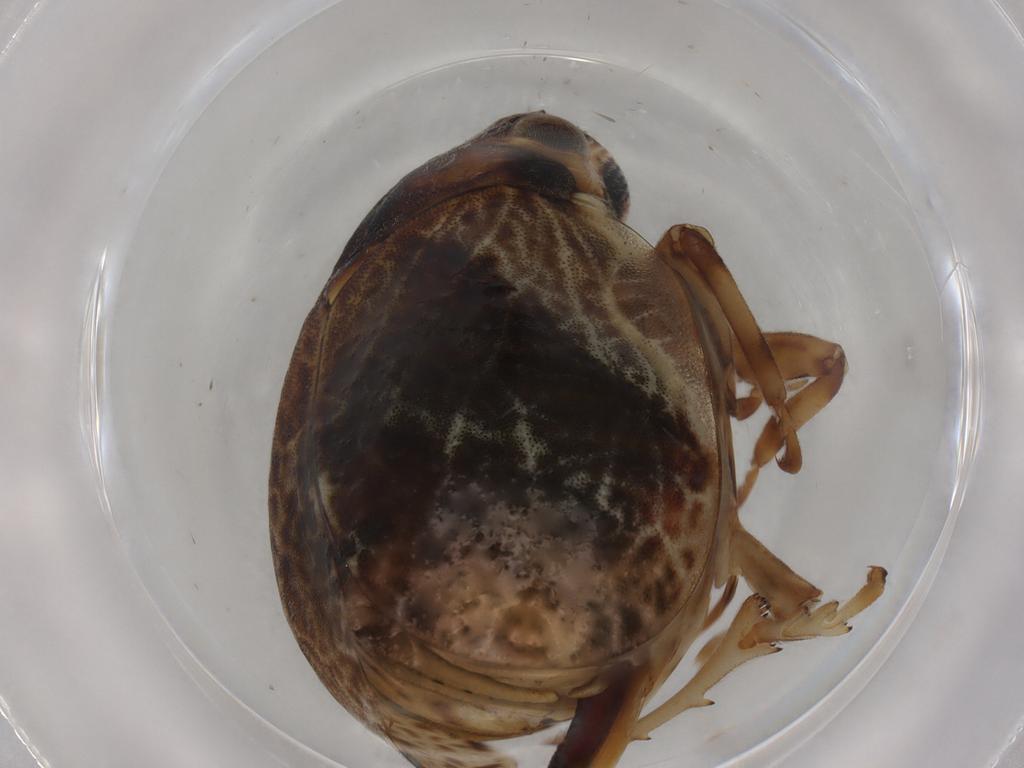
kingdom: Animalia
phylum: Arthropoda
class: Insecta
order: Hemiptera
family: Aphrophoridae
